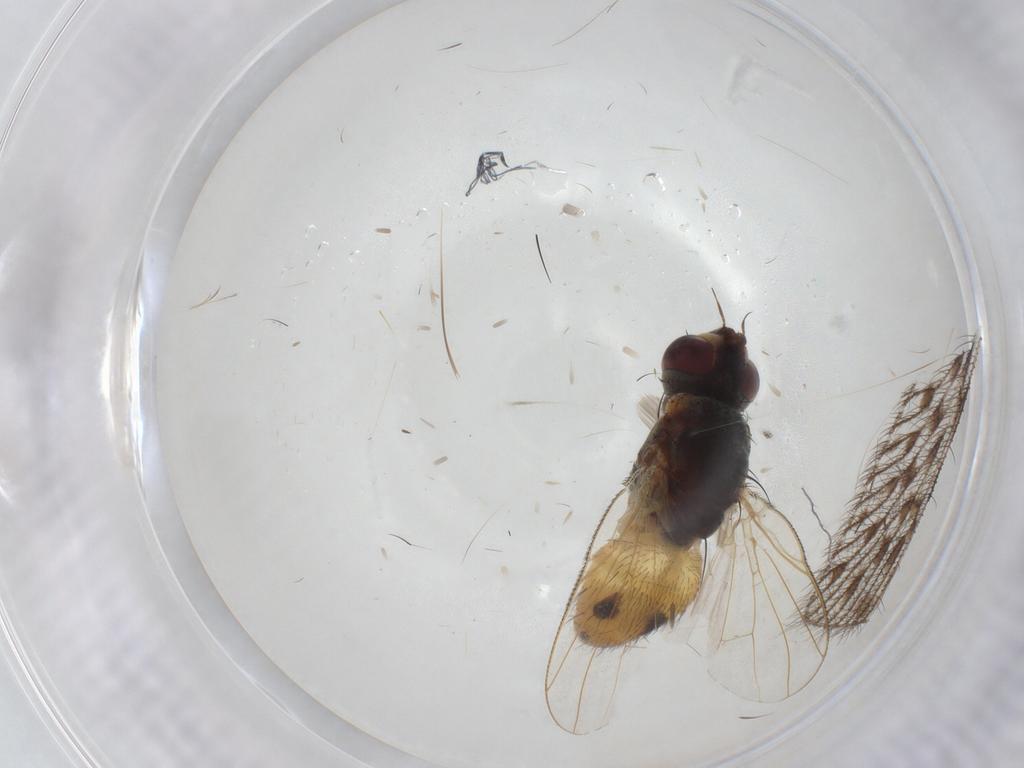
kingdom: Animalia
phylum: Arthropoda
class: Insecta
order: Diptera
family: Muscidae
